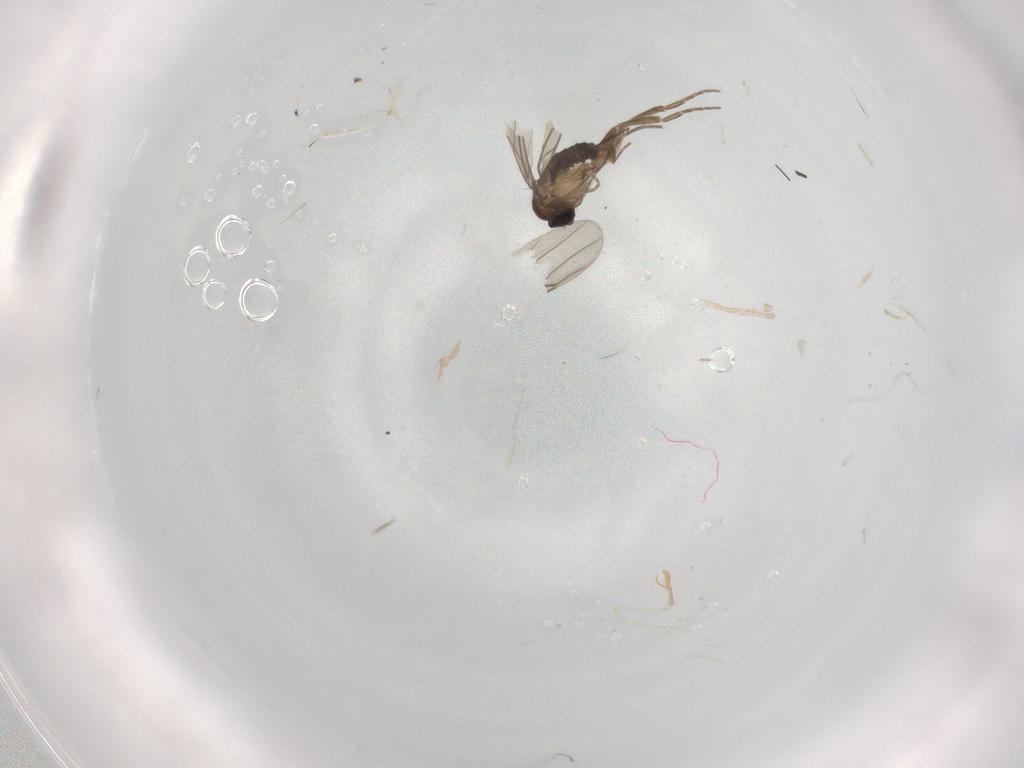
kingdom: Animalia
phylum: Arthropoda
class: Insecta
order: Diptera
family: Phoridae
